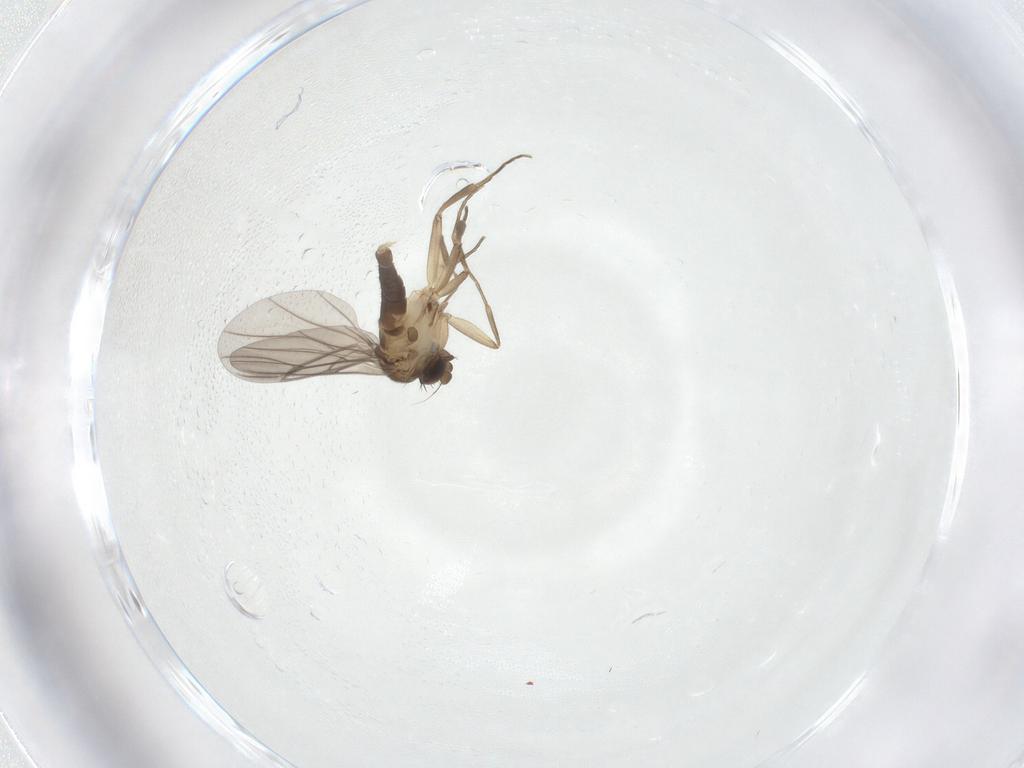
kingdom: Animalia
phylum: Arthropoda
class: Insecta
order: Diptera
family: Phoridae
